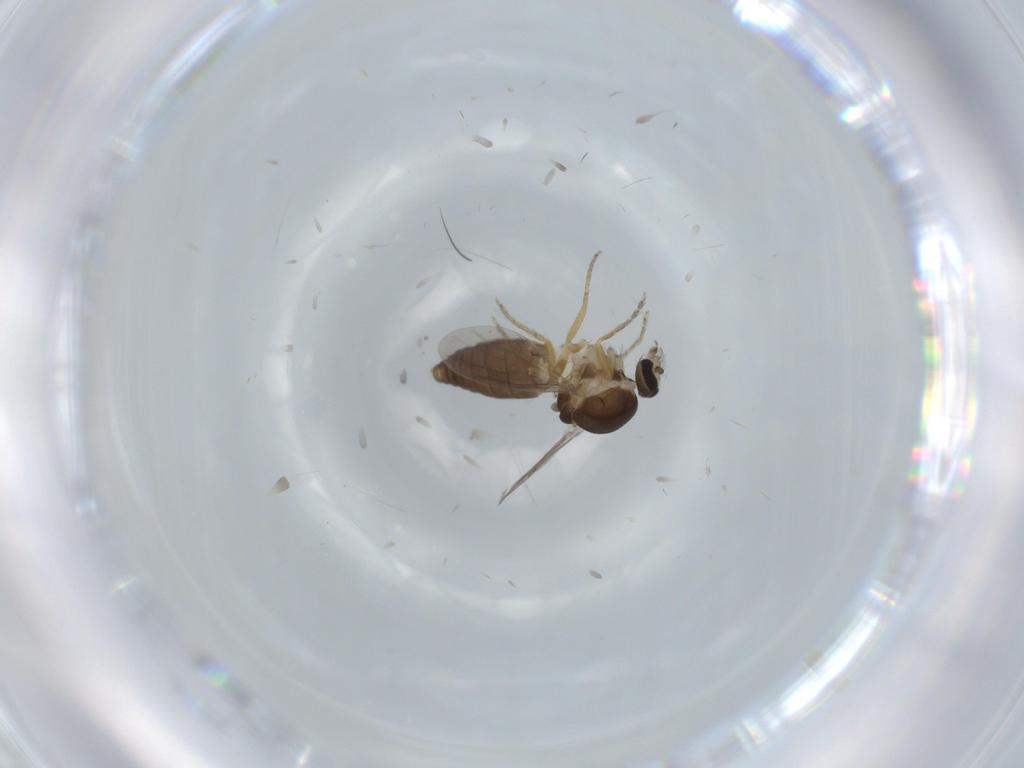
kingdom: Animalia
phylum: Arthropoda
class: Insecta
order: Diptera
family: Ceratopogonidae
